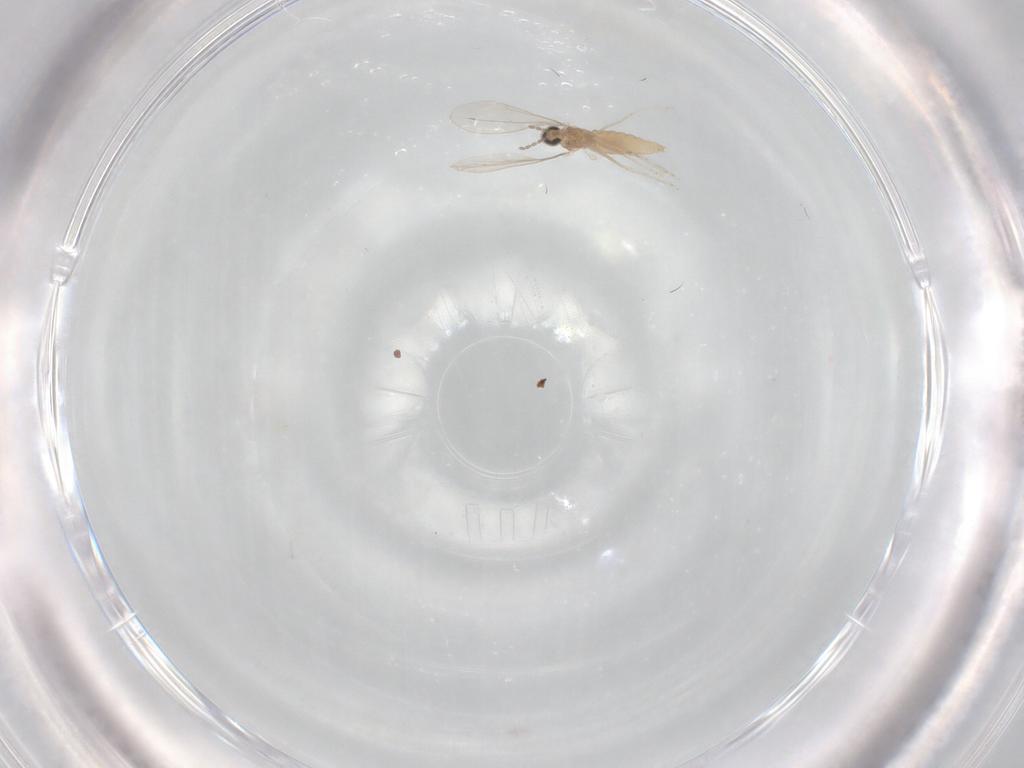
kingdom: Animalia
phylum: Arthropoda
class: Insecta
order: Diptera
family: Cecidomyiidae
